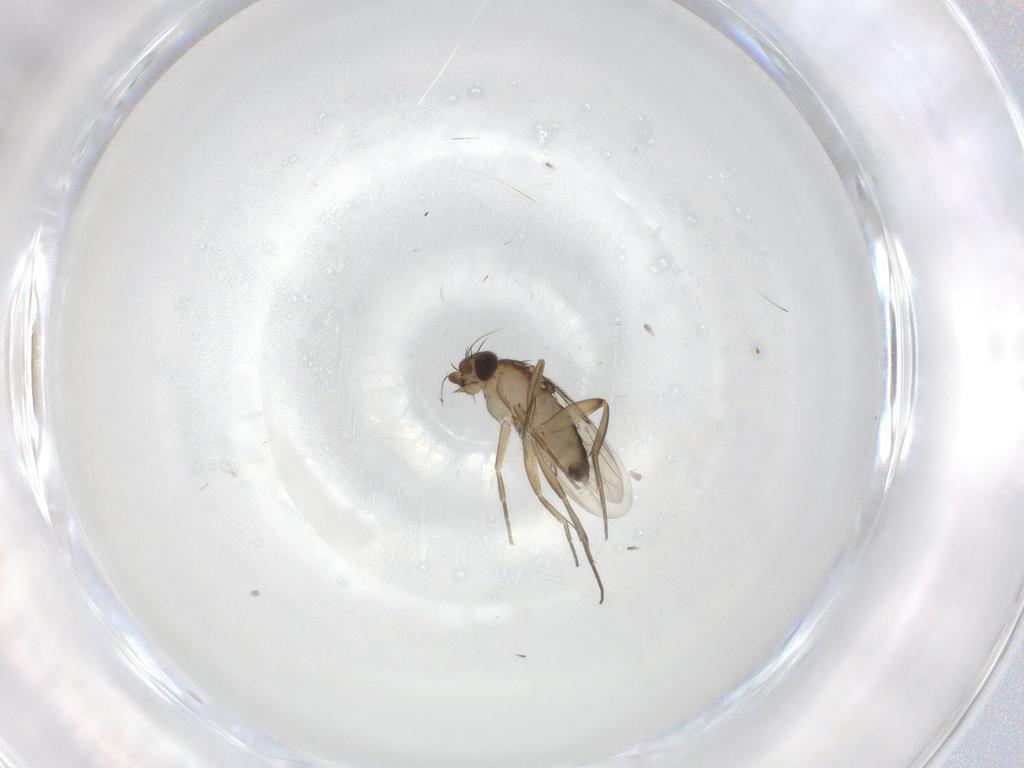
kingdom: Animalia
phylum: Arthropoda
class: Insecta
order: Diptera
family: Phoridae
